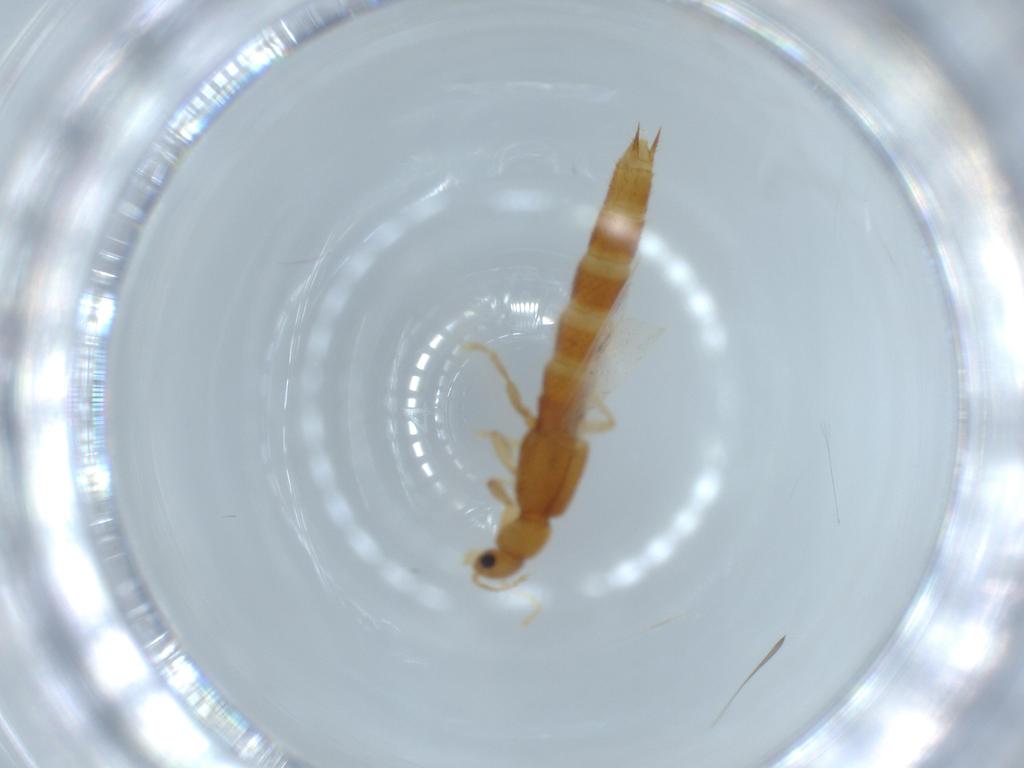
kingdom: Animalia
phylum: Arthropoda
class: Insecta
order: Coleoptera
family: Staphylinidae
